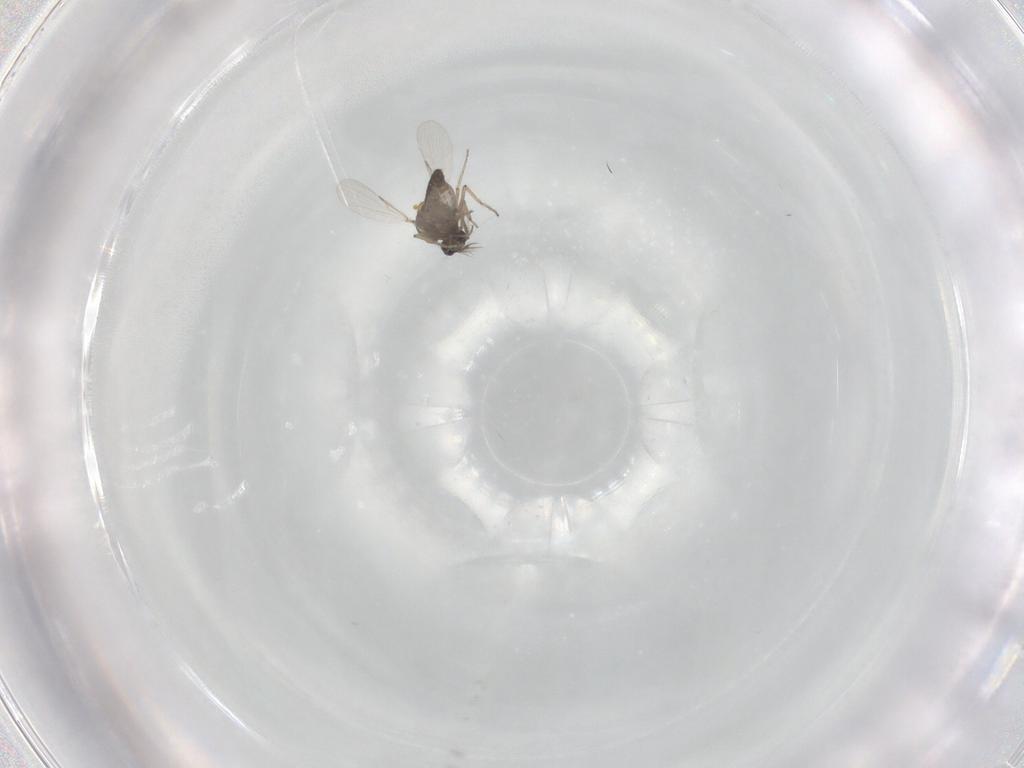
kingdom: Animalia
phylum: Arthropoda
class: Insecta
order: Diptera
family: Ceratopogonidae
